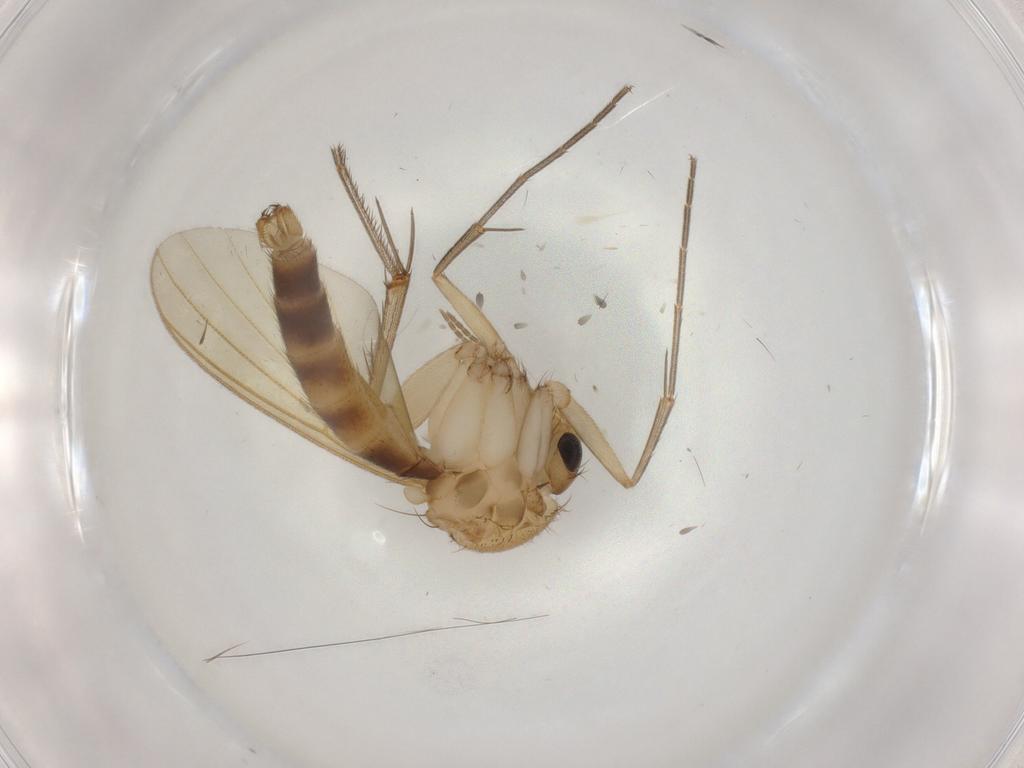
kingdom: Animalia
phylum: Arthropoda
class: Insecta
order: Diptera
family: Mycetophilidae
